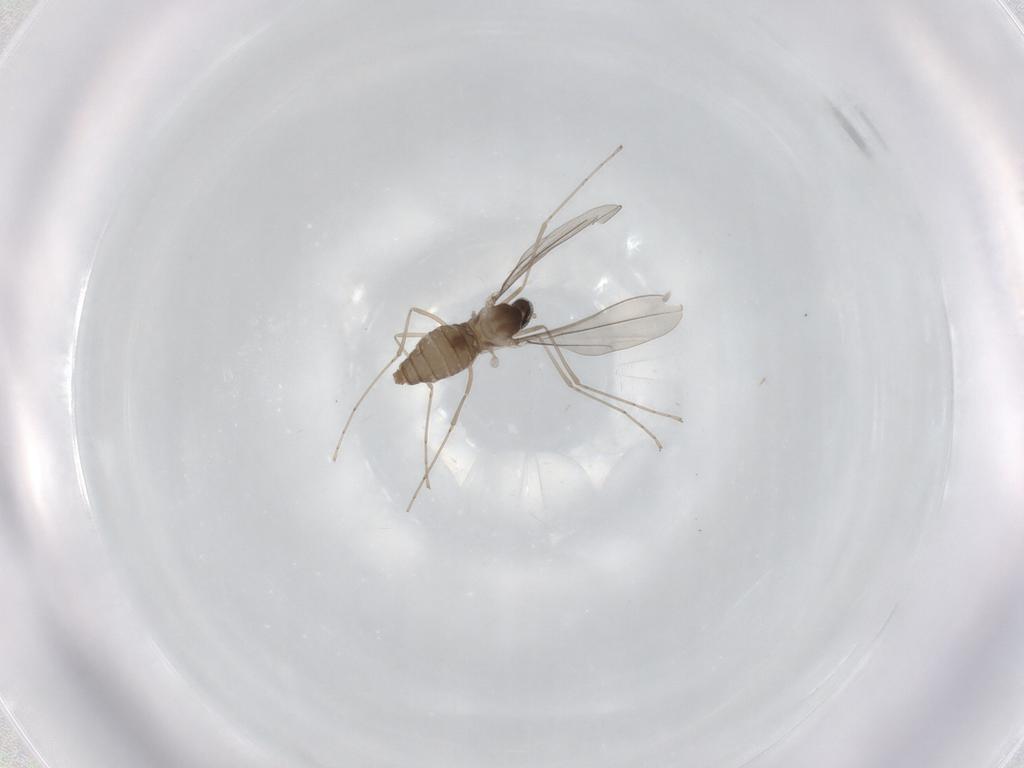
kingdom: Animalia
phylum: Arthropoda
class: Insecta
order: Diptera
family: Cecidomyiidae
